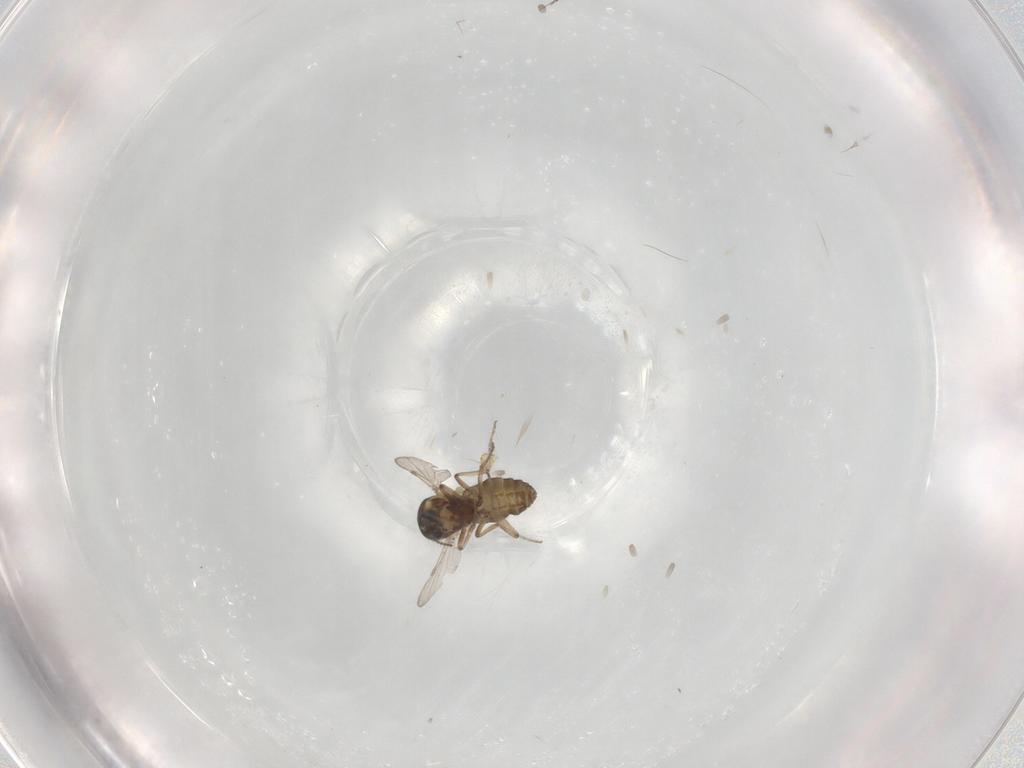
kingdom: Animalia
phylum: Arthropoda
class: Insecta
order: Diptera
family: Ceratopogonidae
